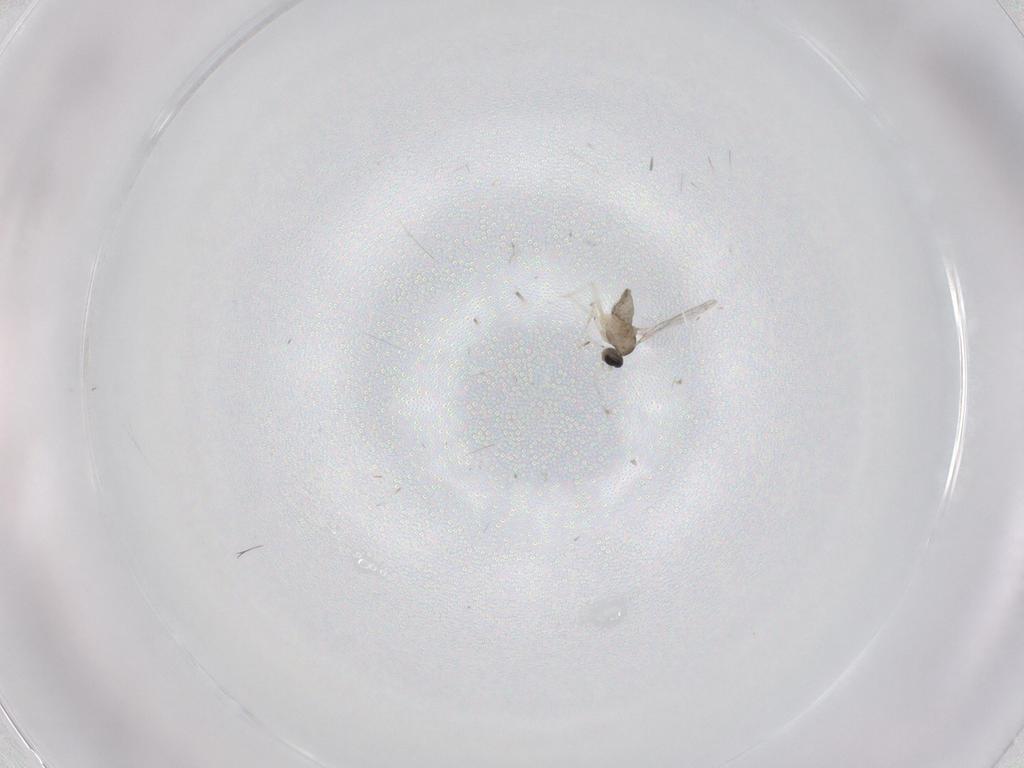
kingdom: Animalia
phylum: Arthropoda
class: Insecta
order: Diptera
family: Cecidomyiidae
